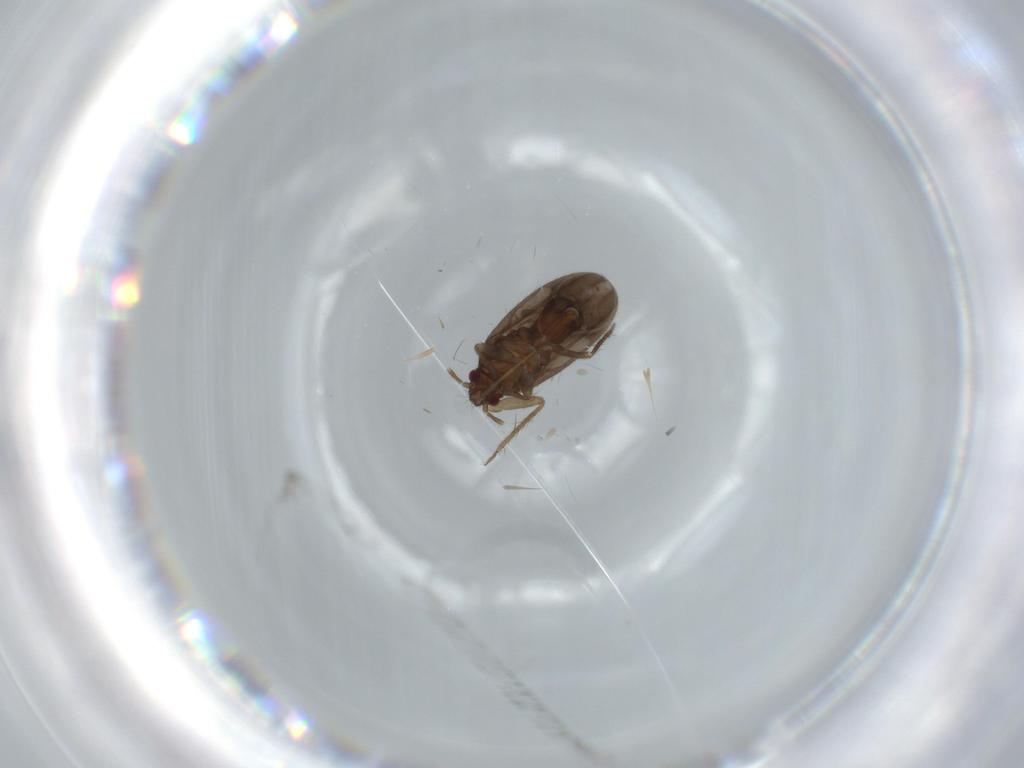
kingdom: Animalia
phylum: Arthropoda
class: Insecta
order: Hemiptera
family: Ceratocombidae
